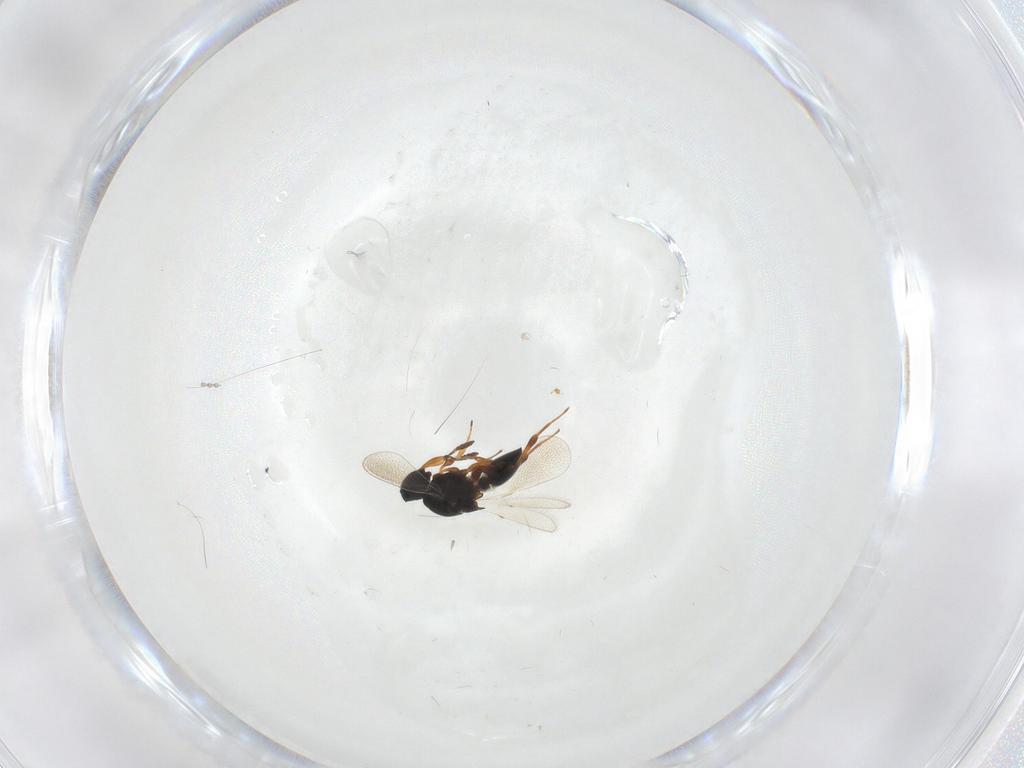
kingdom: Animalia
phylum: Arthropoda
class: Insecta
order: Hymenoptera
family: Platygastridae
